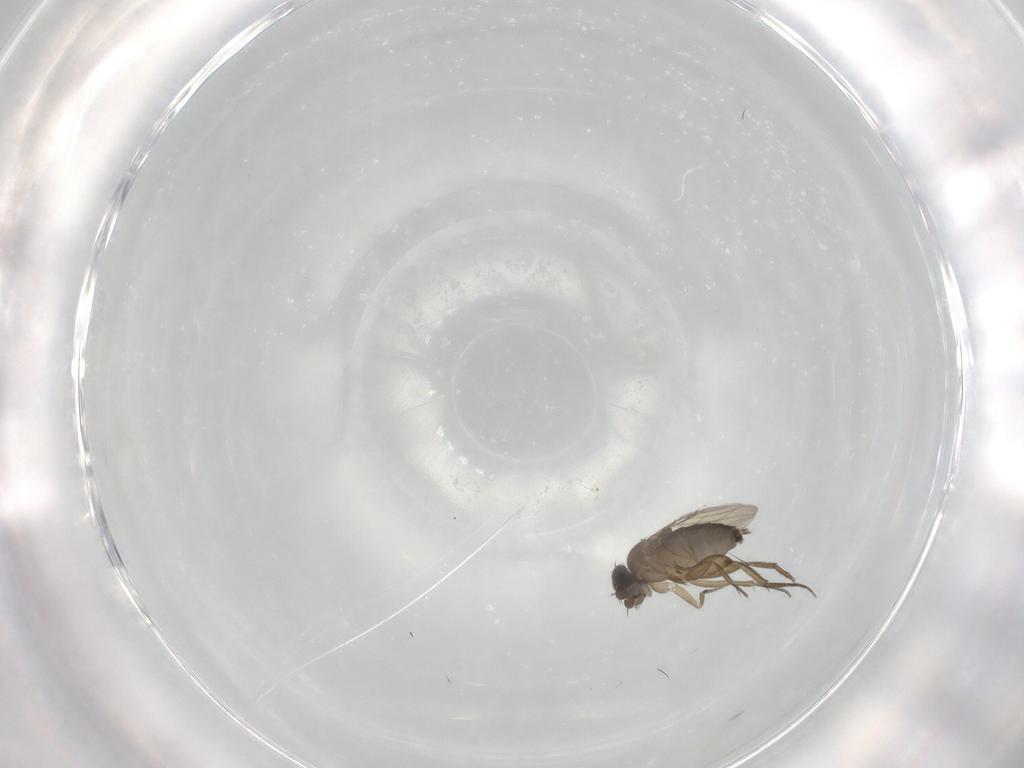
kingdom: Animalia
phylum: Arthropoda
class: Insecta
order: Diptera
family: Phoridae
